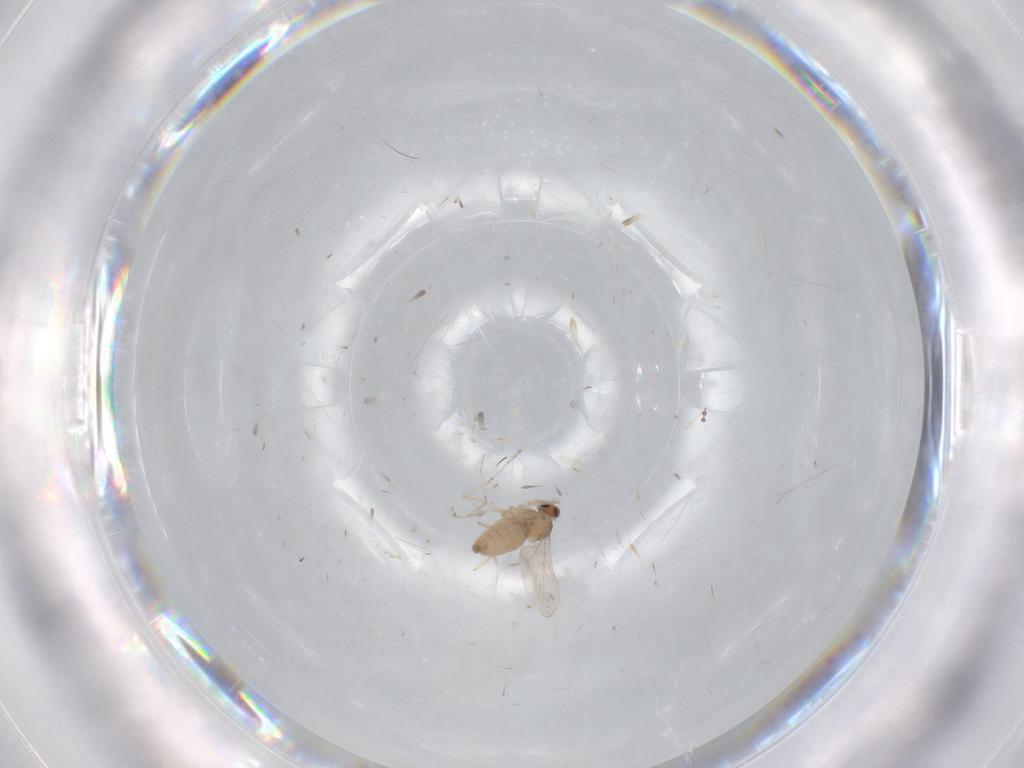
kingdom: Animalia
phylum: Arthropoda
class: Insecta
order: Diptera
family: Cecidomyiidae
